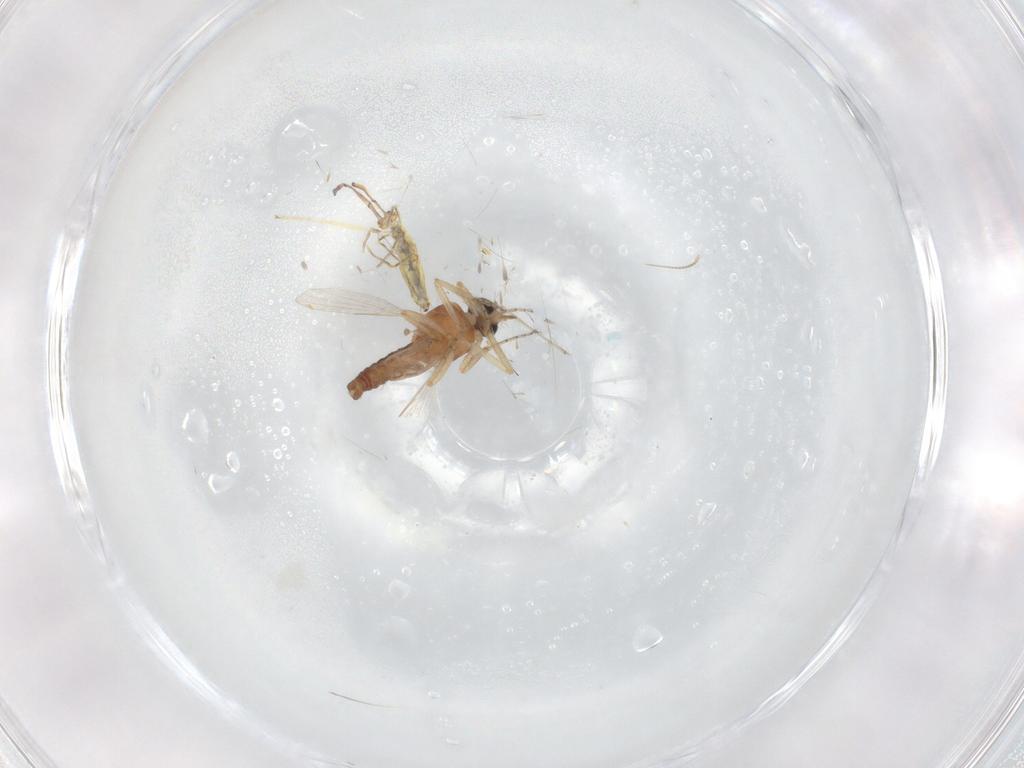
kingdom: Animalia
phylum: Arthropoda
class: Insecta
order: Diptera
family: Ceratopogonidae
